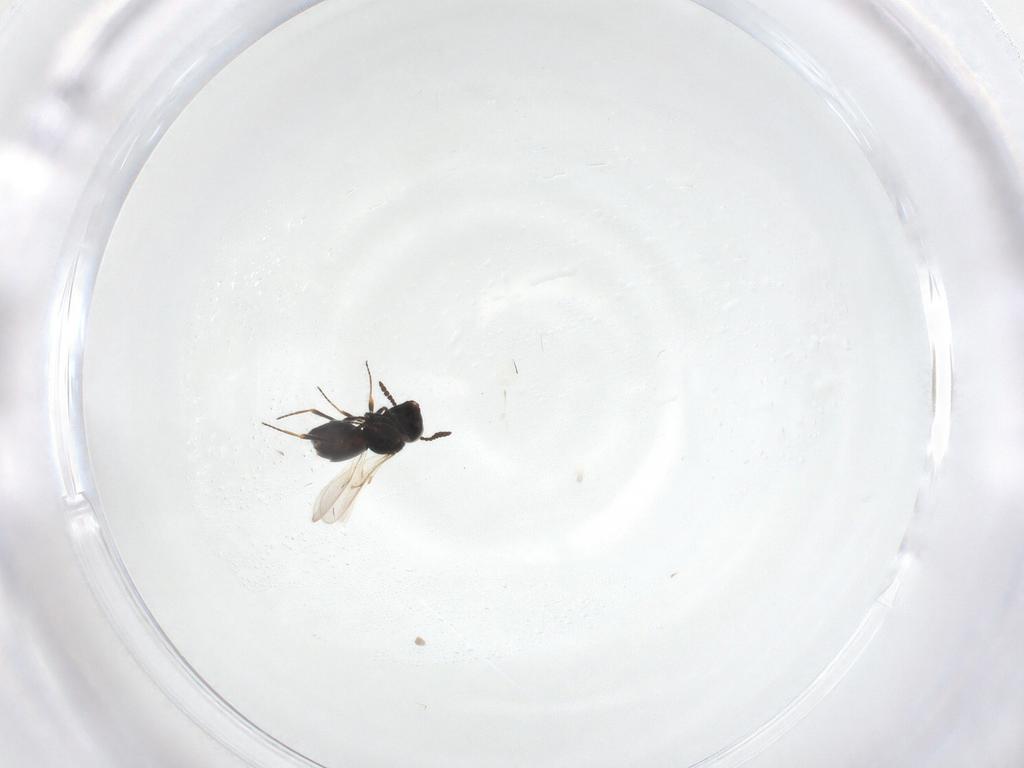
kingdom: Animalia
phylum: Arthropoda
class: Insecta
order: Hymenoptera
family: Scelionidae
